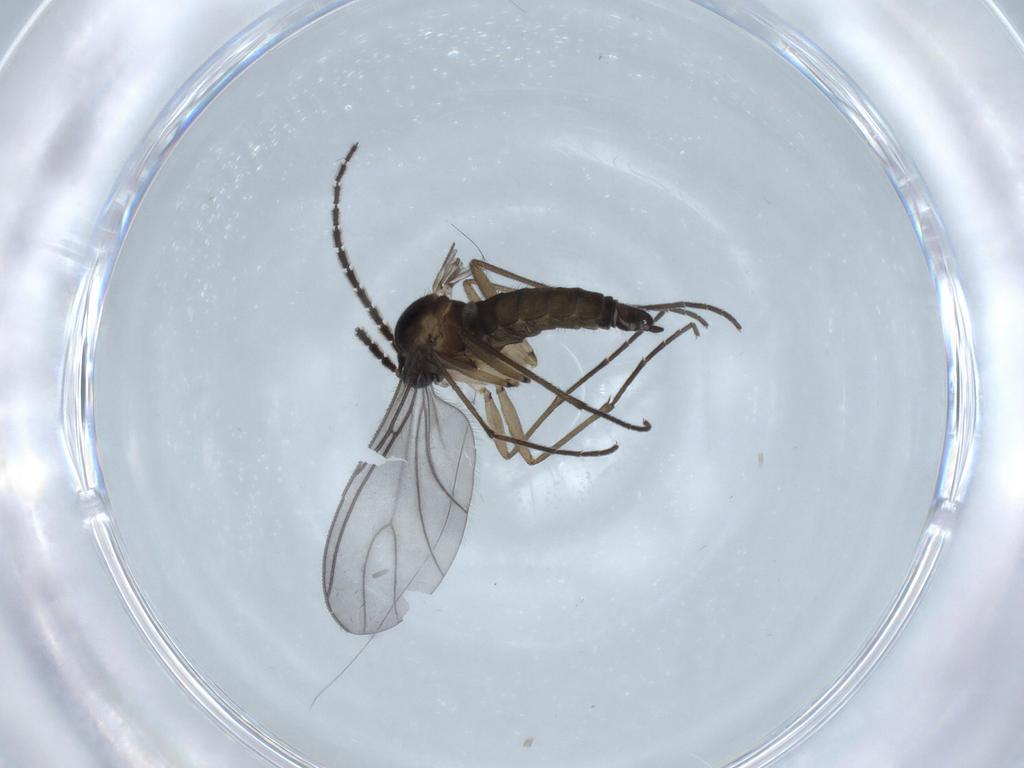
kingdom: Animalia
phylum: Arthropoda
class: Insecta
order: Diptera
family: Sciaridae
